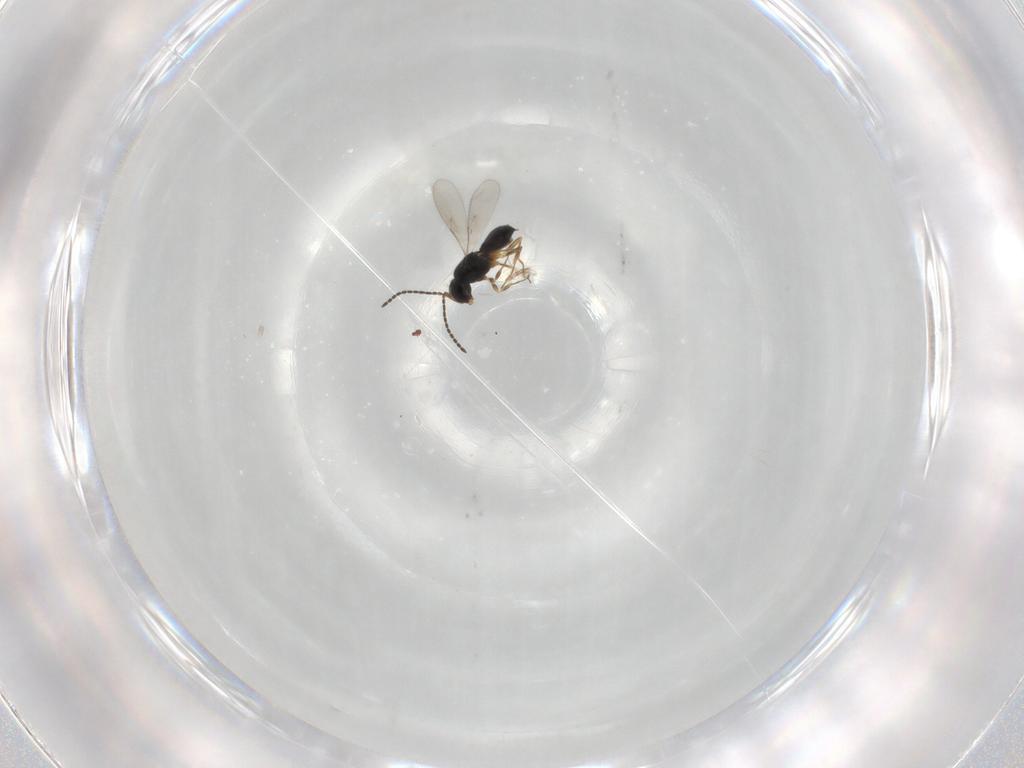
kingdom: Animalia
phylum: Arthropoda
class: Insecta
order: Hymenoptera
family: Scelionidae
